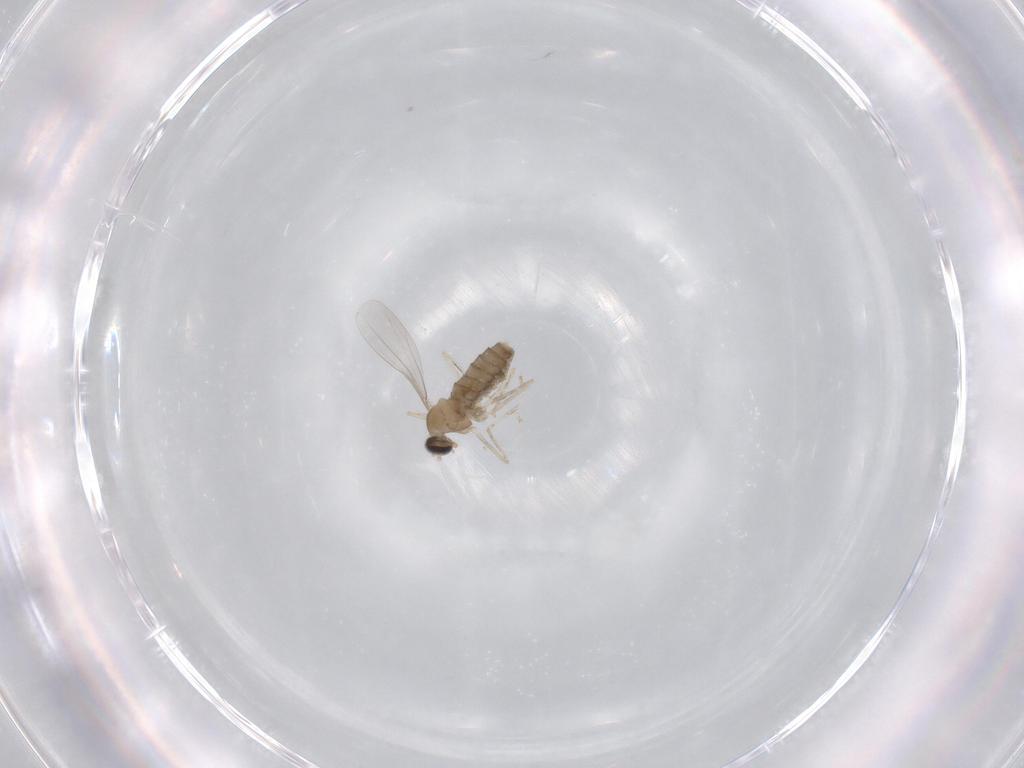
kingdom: Animalia
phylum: Arthropoda
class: Insecta
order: Diptera
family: Cecidomyiidae
